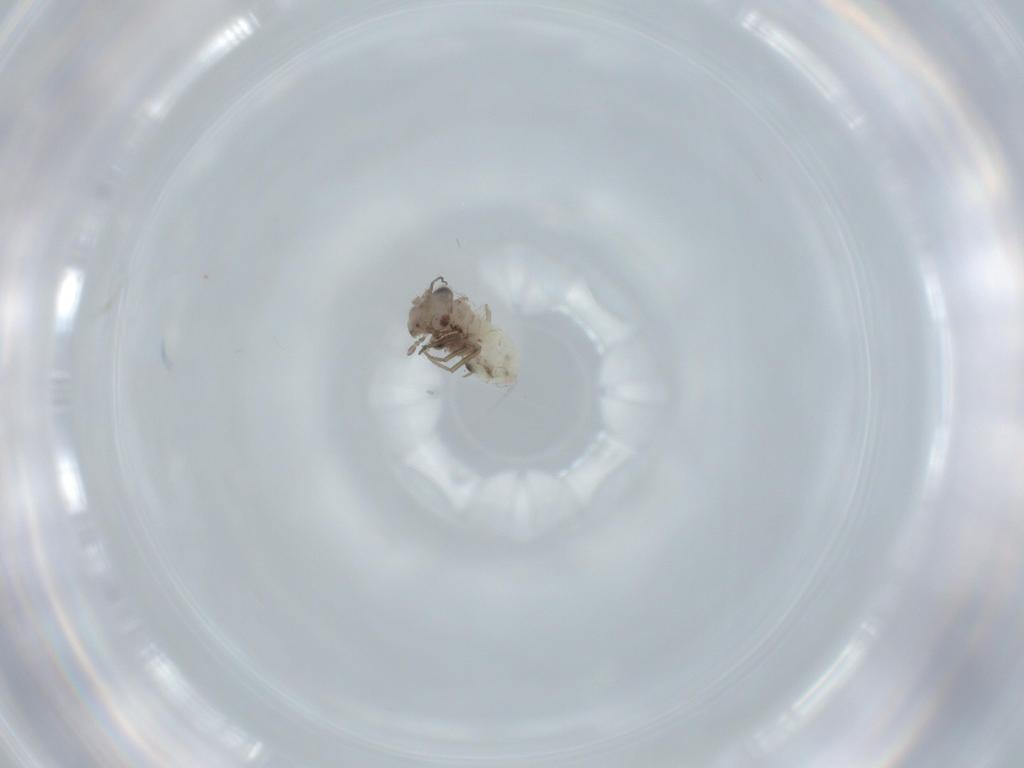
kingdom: Animalia
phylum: Arthropoda
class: Insecta
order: Psocodea
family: Lepidopsocidae
